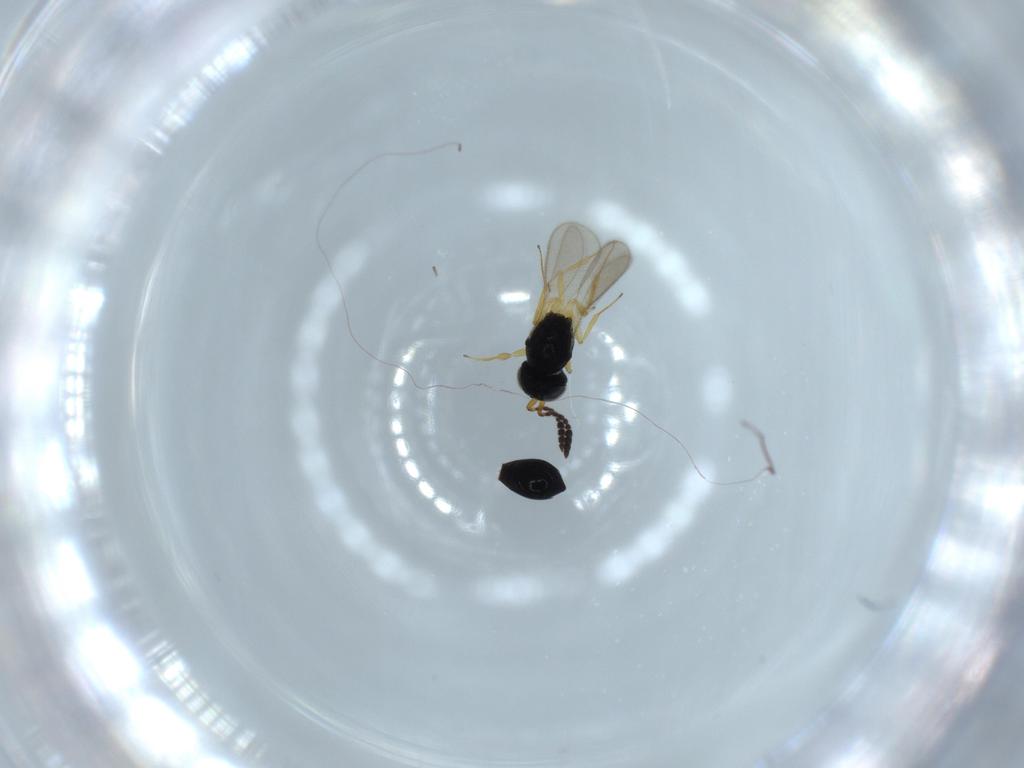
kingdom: Animalia
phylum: Arthropoda
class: Insecta
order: Hymenoptera
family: Scelionidae
